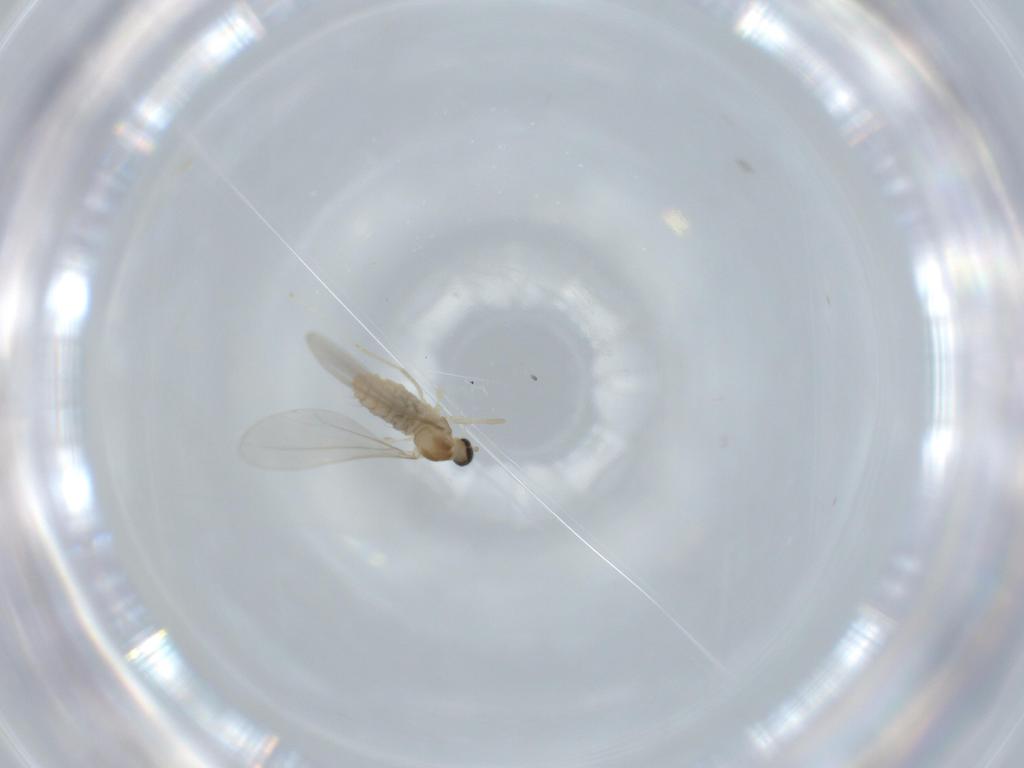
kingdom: Animalia
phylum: Arthropoda
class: Insecta
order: Diptera
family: Cecidomyiidae
